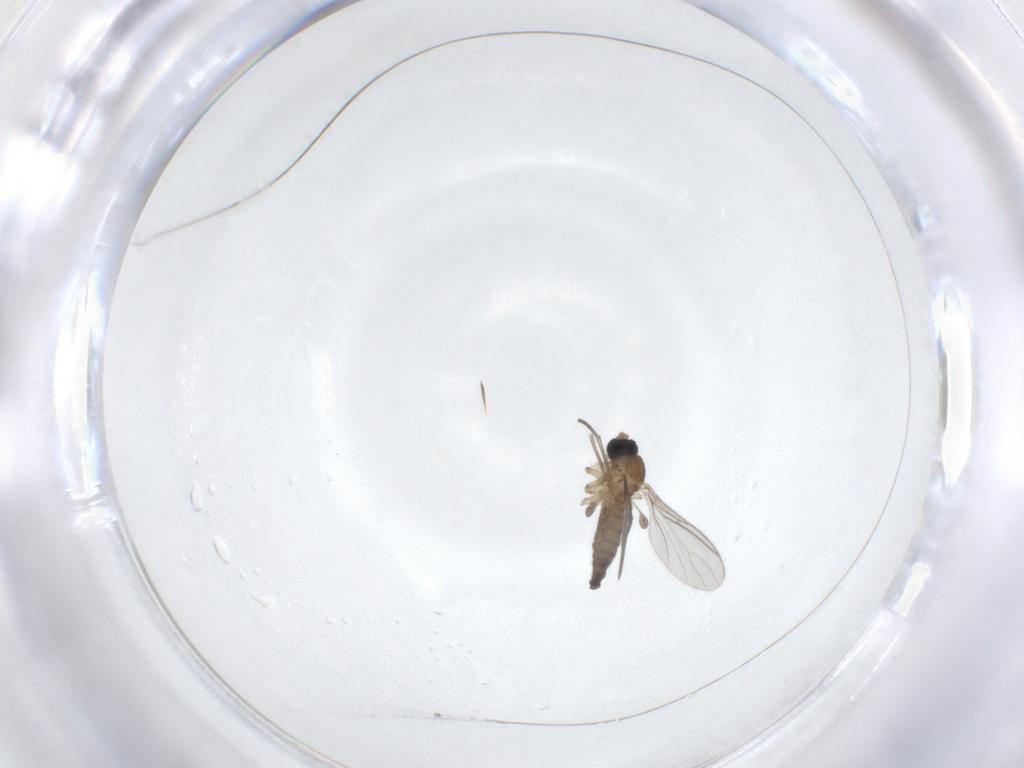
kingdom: Animalia
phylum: Arthropoda
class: Insecta
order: Diptera
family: Sciaridae
